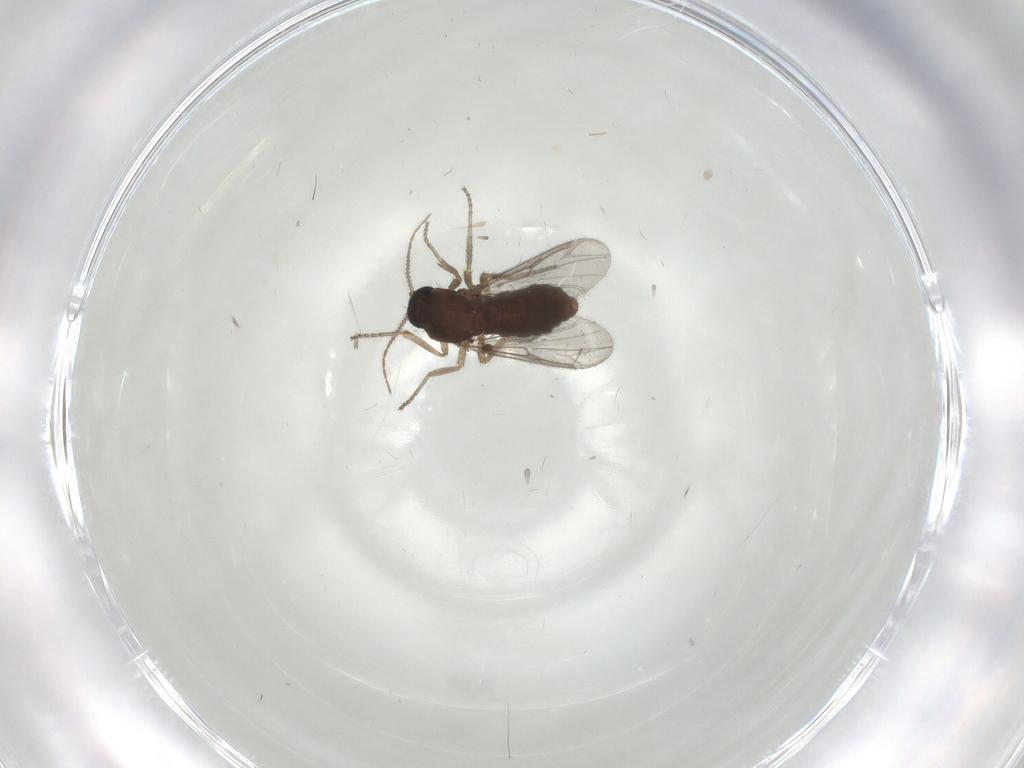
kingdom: Animalia
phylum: Arthropoda
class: Insecta
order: Diptera
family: Ceratopogonidae
